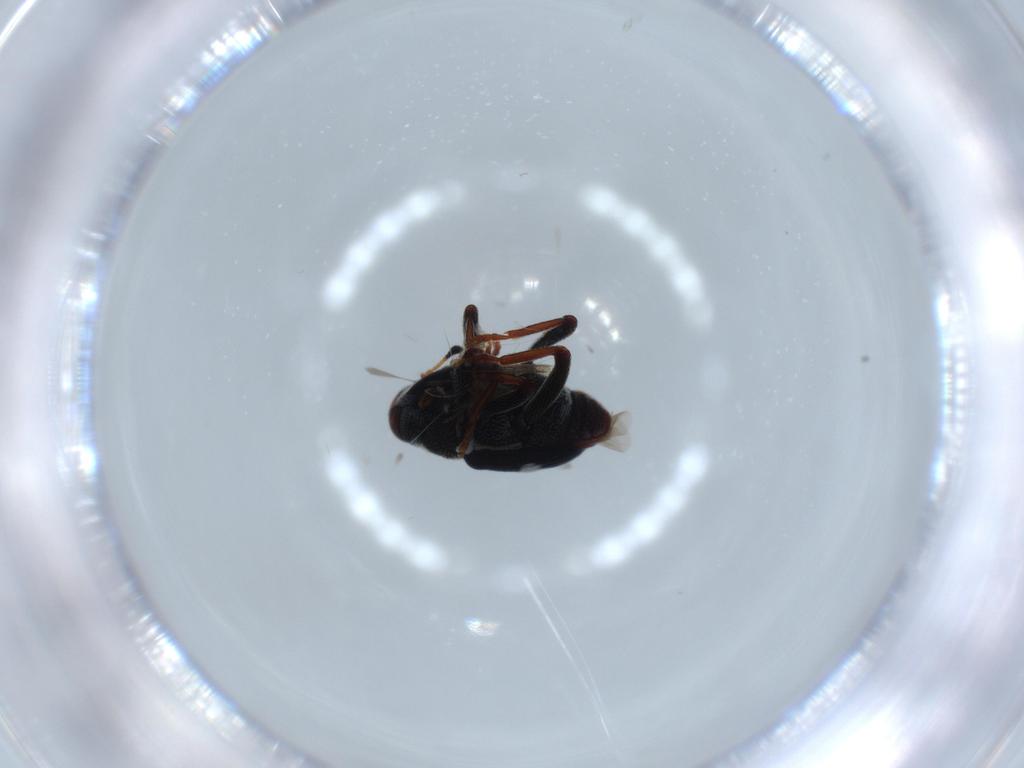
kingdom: Animalia
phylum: Arthropoda
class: Insecta
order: Coleoptera
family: Curculionidae
